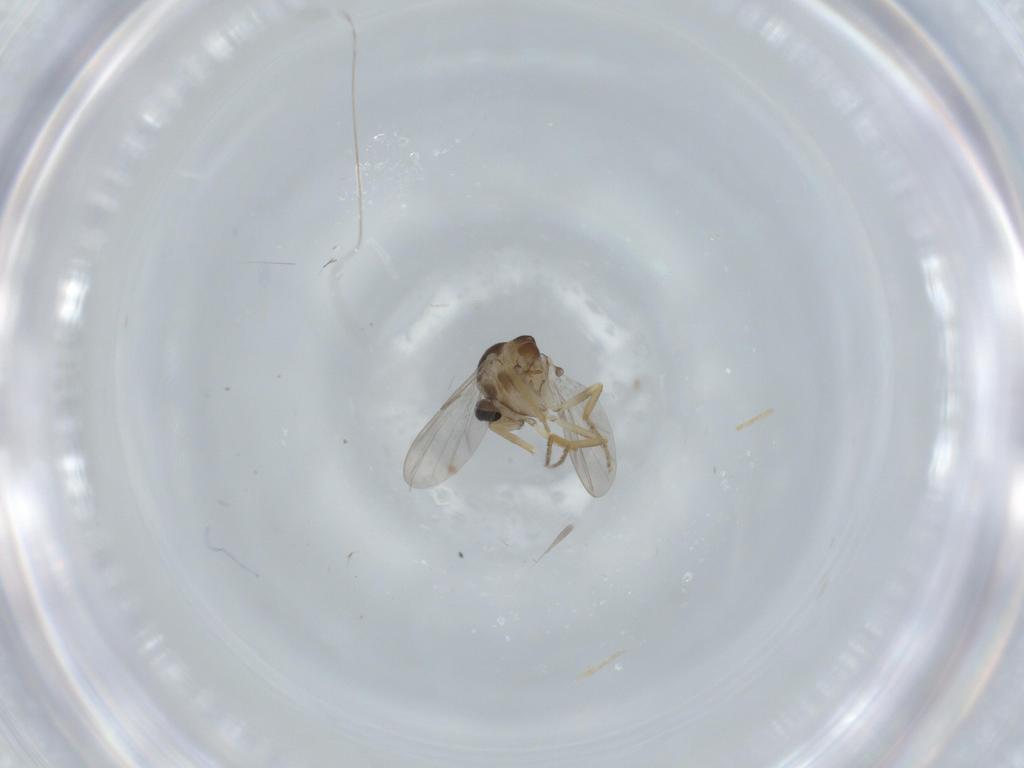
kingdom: Animalia
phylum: Arthropoda
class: Insecta
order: Diptera
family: Ceratopogonidae
